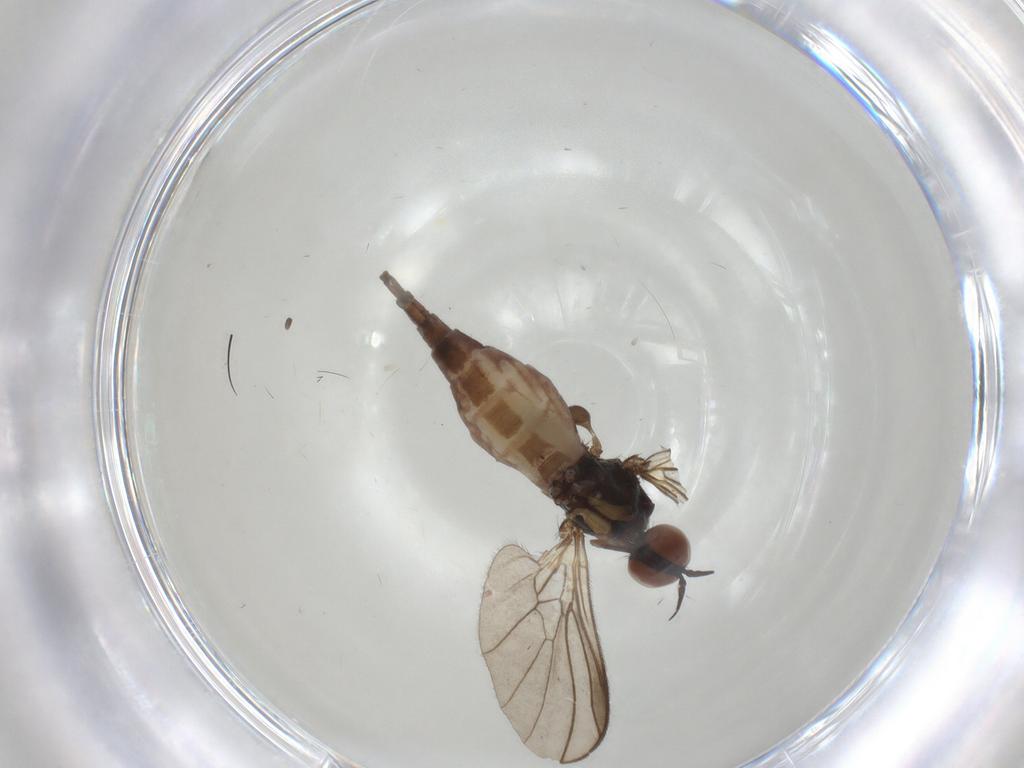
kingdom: Animalia
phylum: Arthropoda
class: Insecta
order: Diptera
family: Empididae
